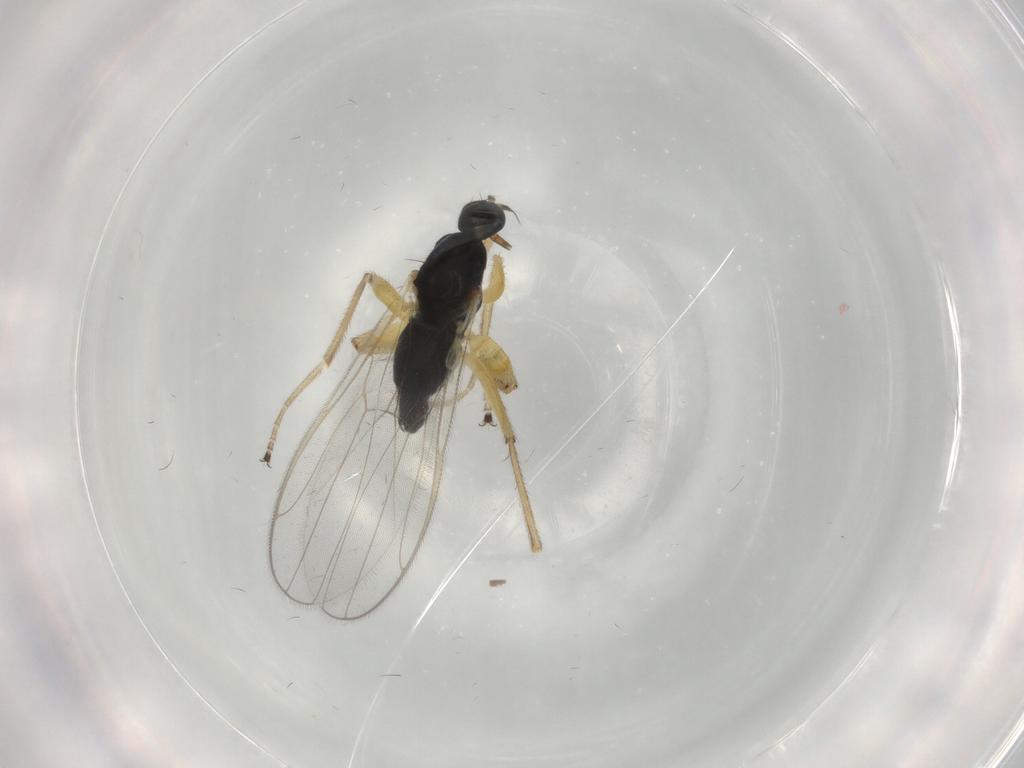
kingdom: Animalia
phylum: Arthropoda
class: Insecta
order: Diptera
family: Hybotidae
